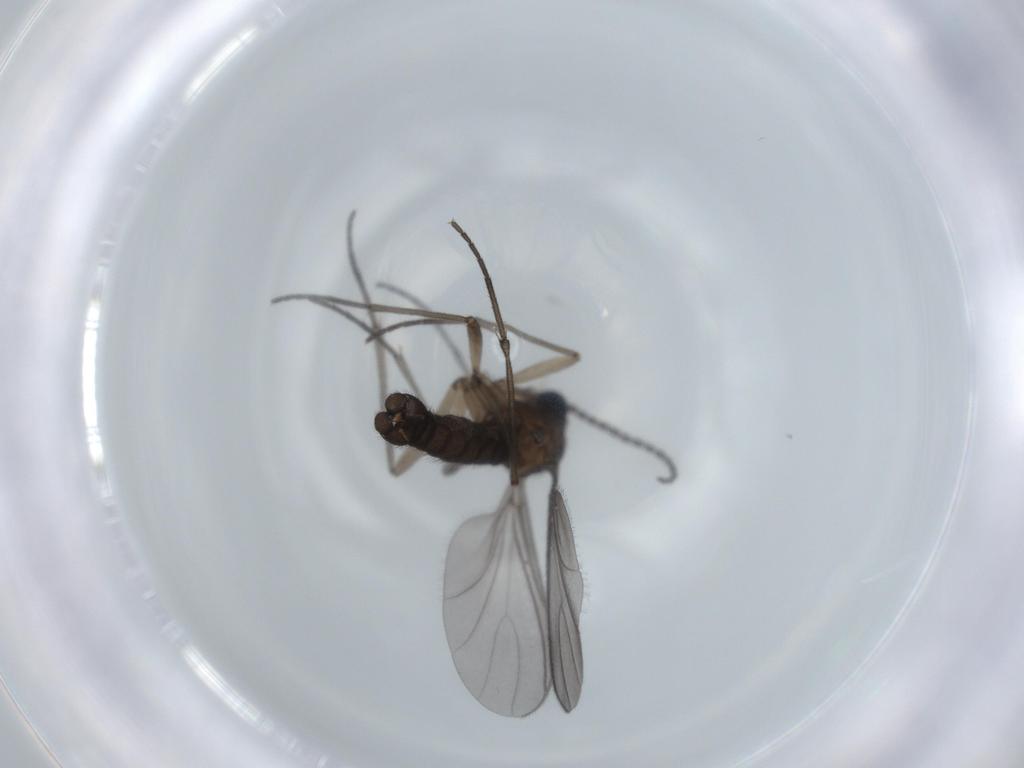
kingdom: Animalia
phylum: Arthropoda
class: Insecta
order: Diptera
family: Sciaridae
